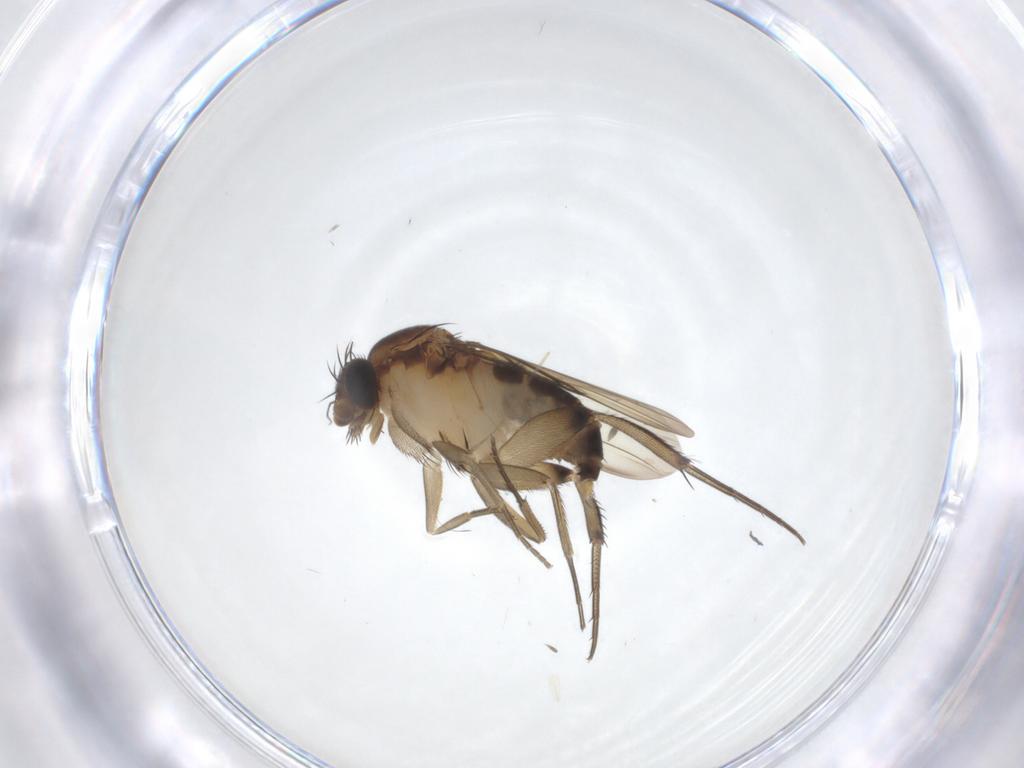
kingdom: Animalia
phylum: Arthropoda
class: Insecta
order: Diptera
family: Phoridae
